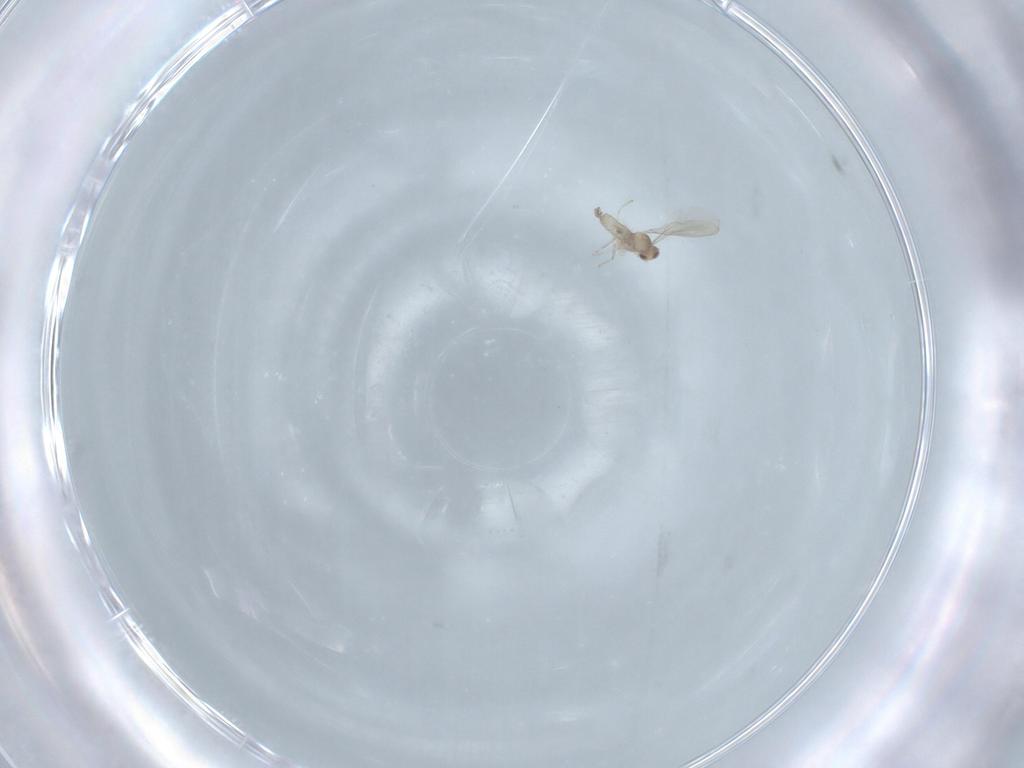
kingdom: Animalia
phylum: Arthropoda
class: Insecta
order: Diptera
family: Cecidomyiidae
